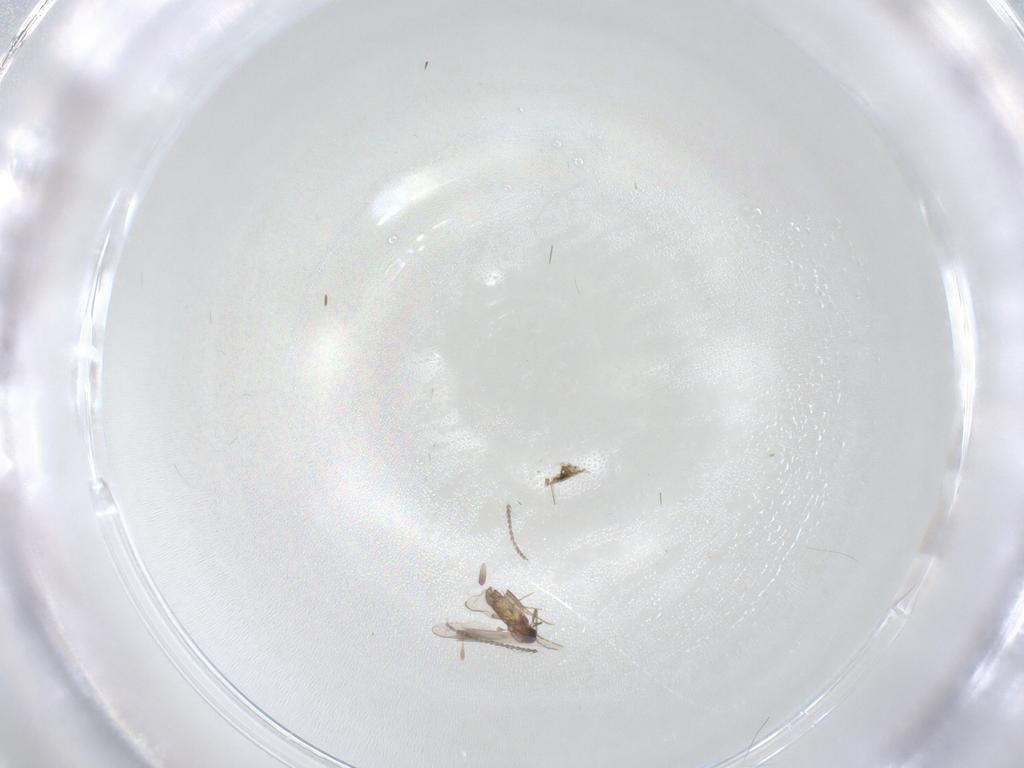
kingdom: Animalia
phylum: Arthropoda
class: Insecta
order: Diptera
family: Chironomidae
